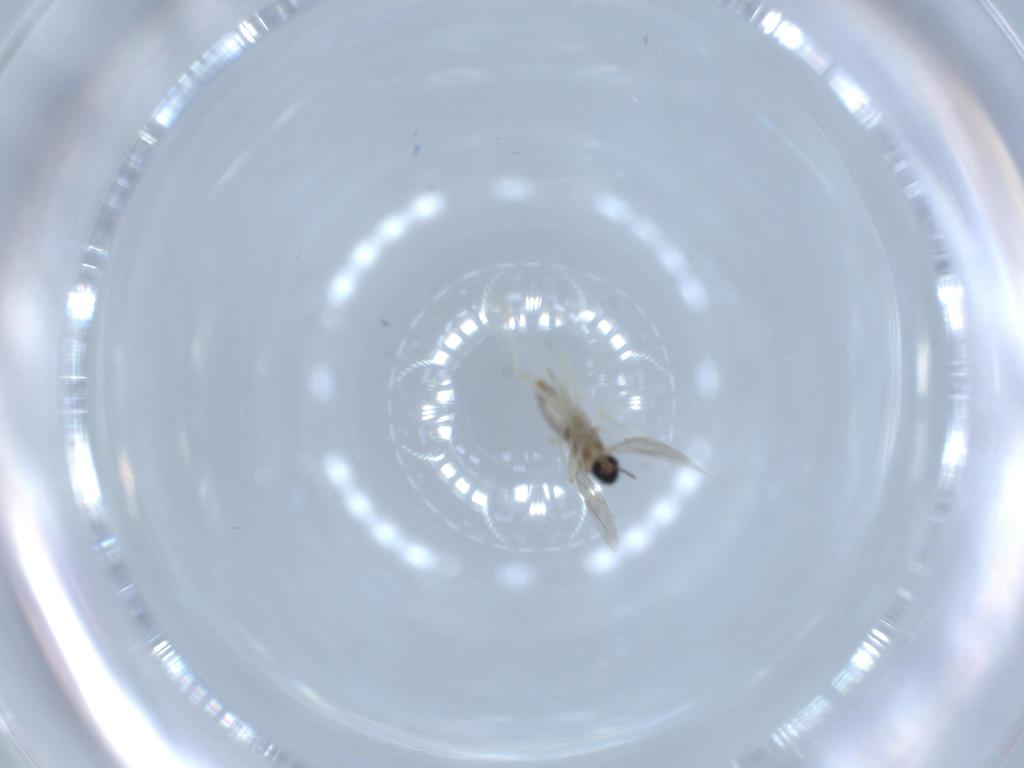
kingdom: Animalia
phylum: Arthropoda
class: Insecta
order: Diptera
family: Cecidomyiidae
